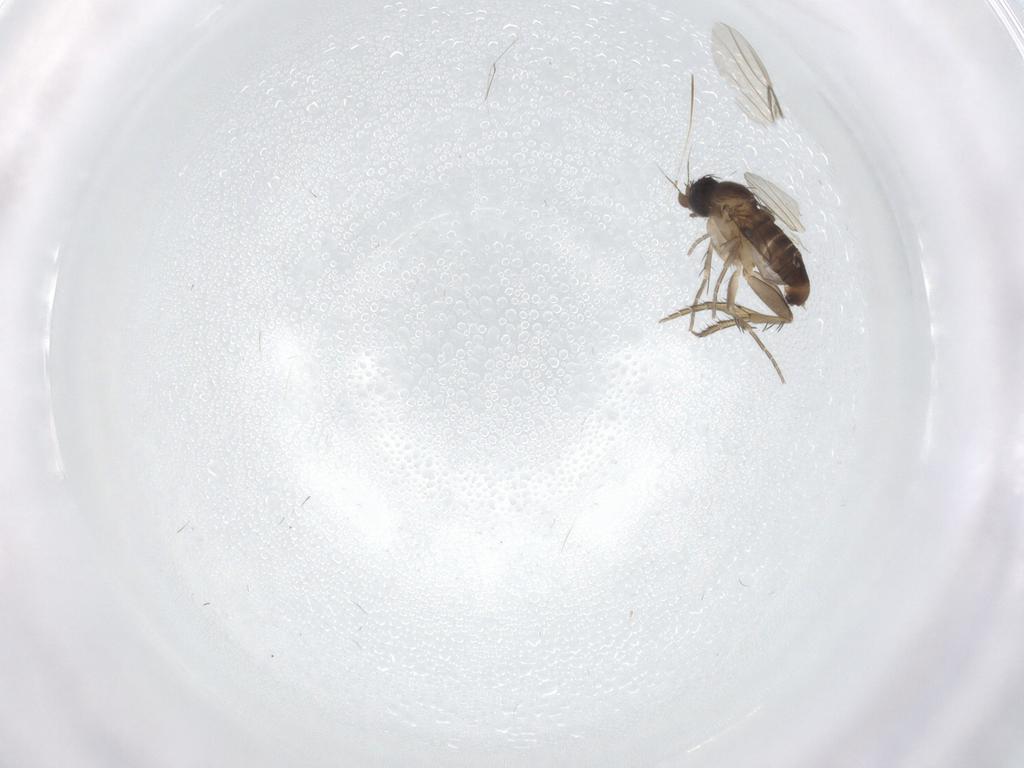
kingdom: Animalia
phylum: Arthropoda
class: Insecta
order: Diptera
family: Phoridae
